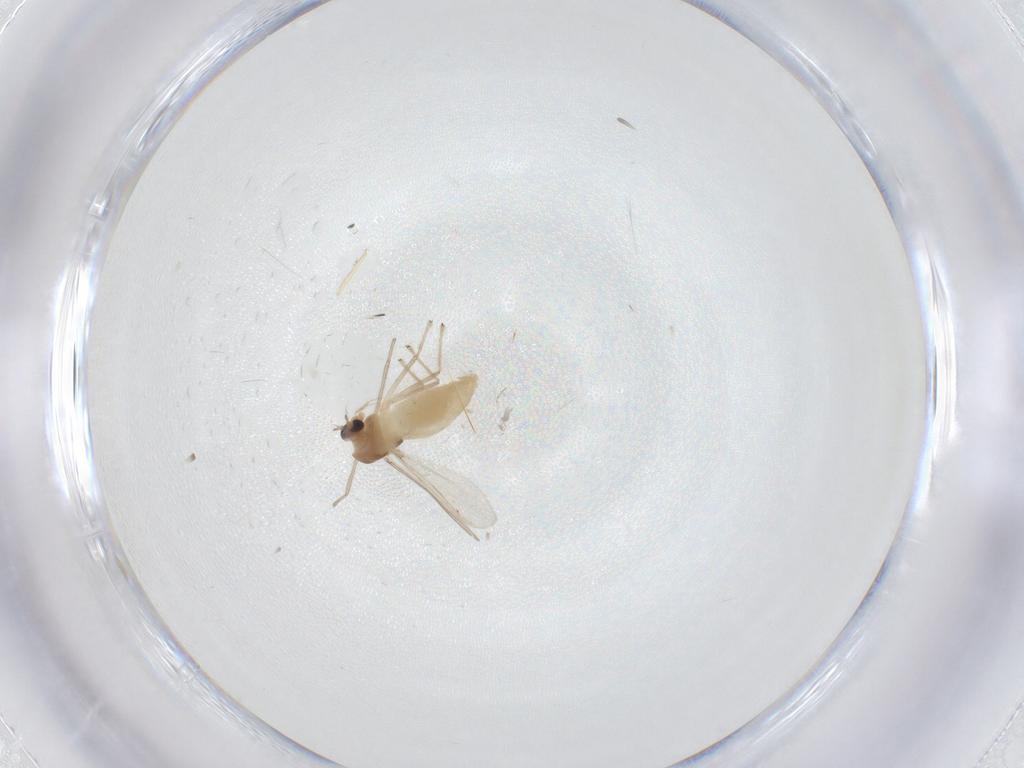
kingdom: Animalia
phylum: Arthropoda
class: Insecta
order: Diptera
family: Chironomidae
